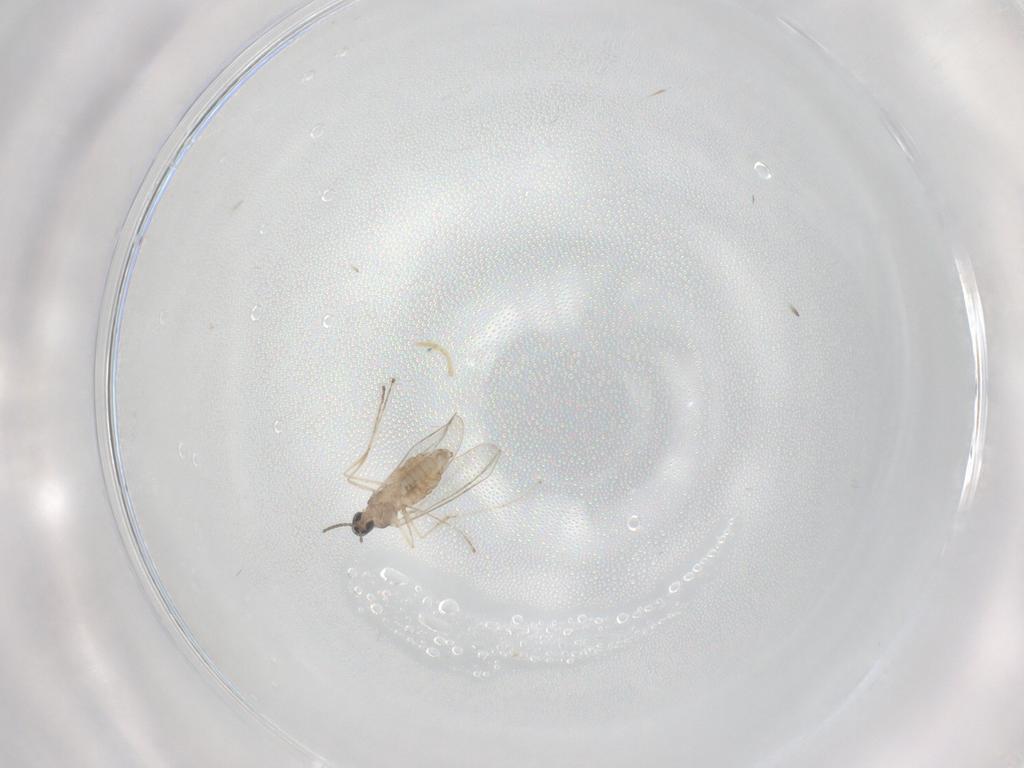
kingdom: Animalia
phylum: Arthropoda
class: Insecta
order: Diptera
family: Cecidomyiidae
